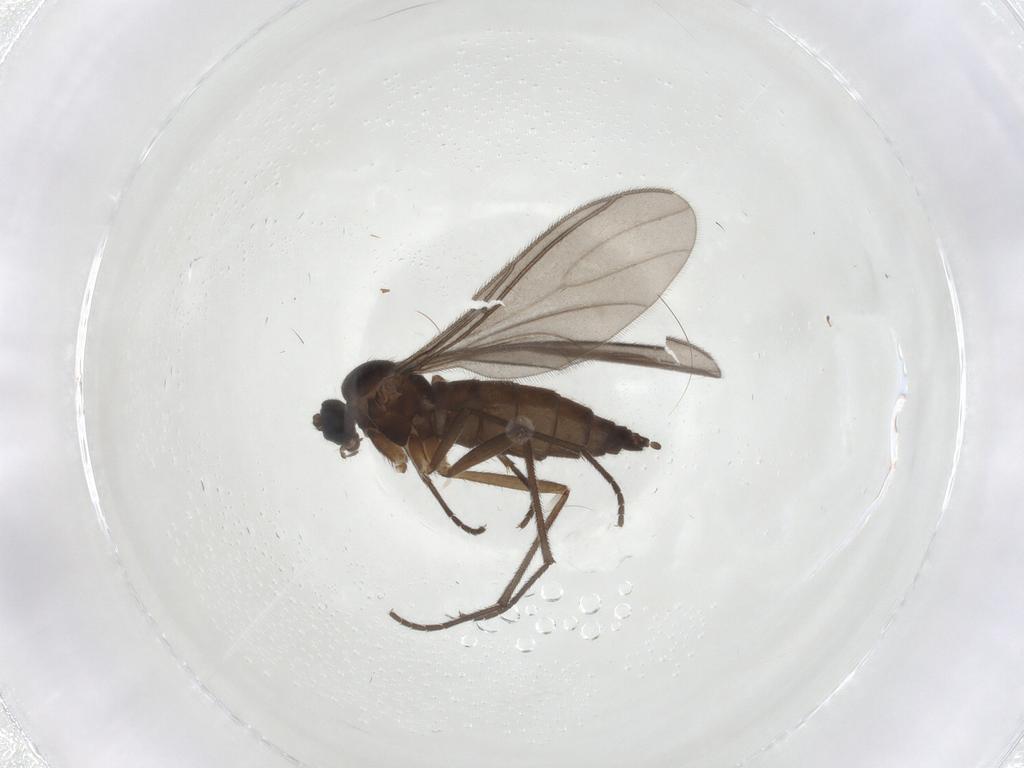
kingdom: Animalia
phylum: Arthropoda
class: Insecta
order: Diptera
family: Sciaridae
